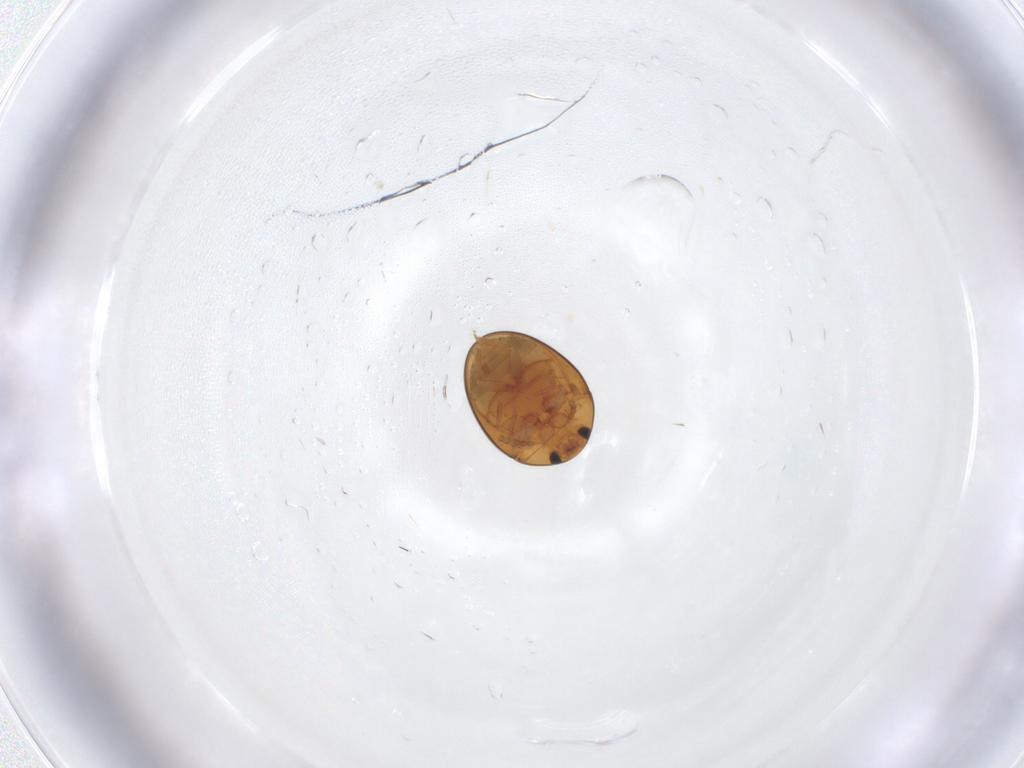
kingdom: Animalia
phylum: Arthropoda
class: Insecta
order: Coleoptera
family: Phalacridae
